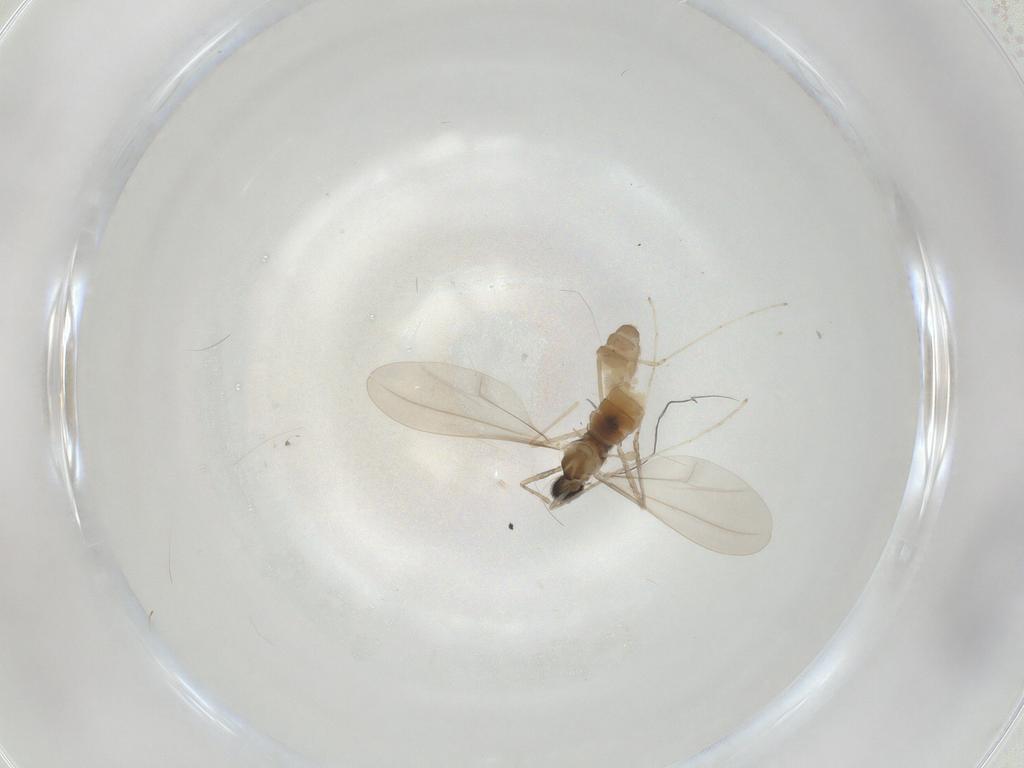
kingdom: Animalia
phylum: Arthropoda
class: Insecta
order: Diptera
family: Cecidomyiidae
